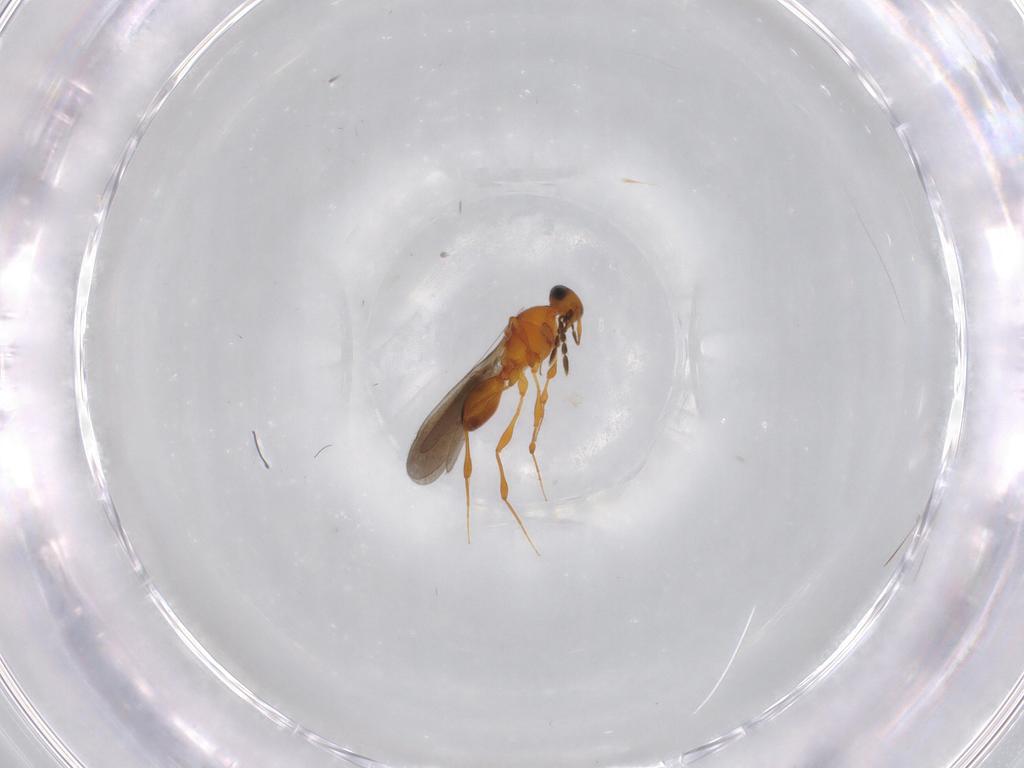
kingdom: Animalia
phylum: Arthropoda
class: Insecta
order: Hymenoptera
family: Platygastridae
